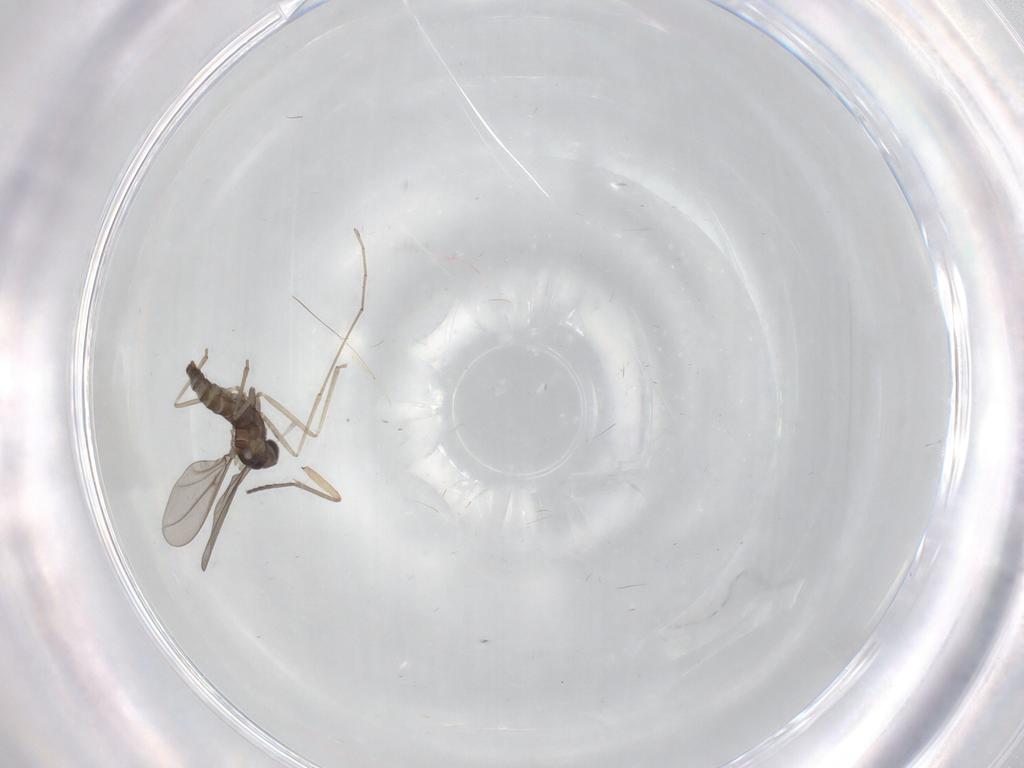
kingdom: Animalia
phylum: Arthropoda
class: Insecta
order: Diptera
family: Sciaridae
